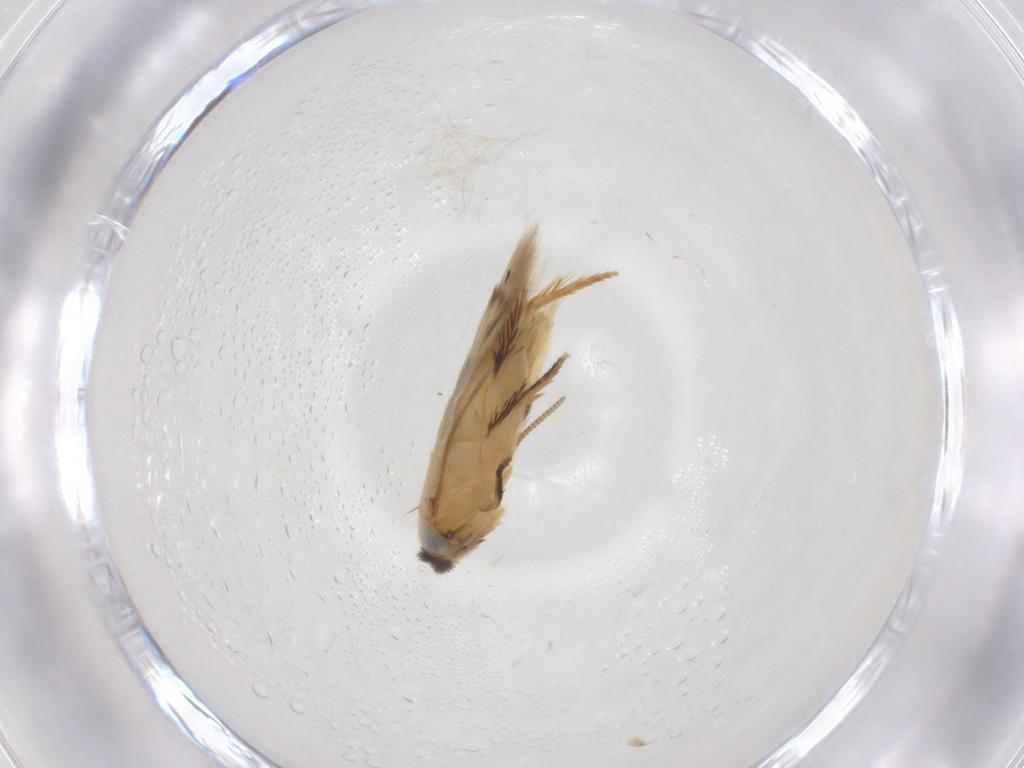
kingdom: Animalia
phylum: Arthropoda
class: Insecta
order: Lepidoptera
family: Opostegidae
